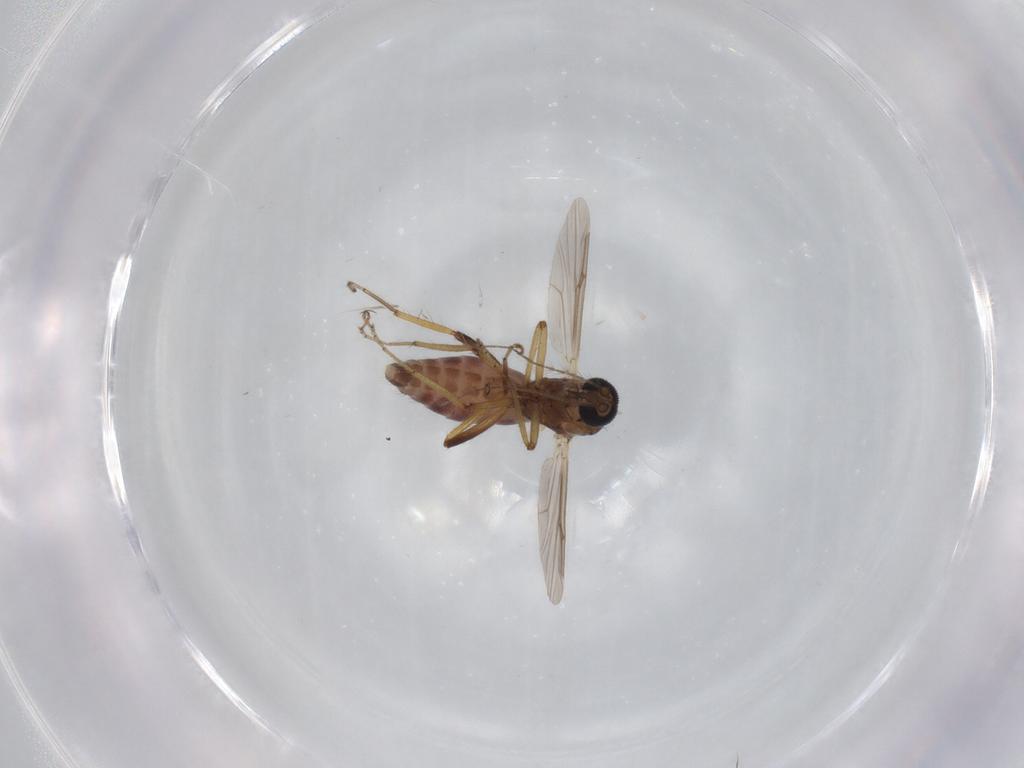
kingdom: Animalia
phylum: Arthropoda
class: Insecta
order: Diptera
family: Ceratopogonidae
